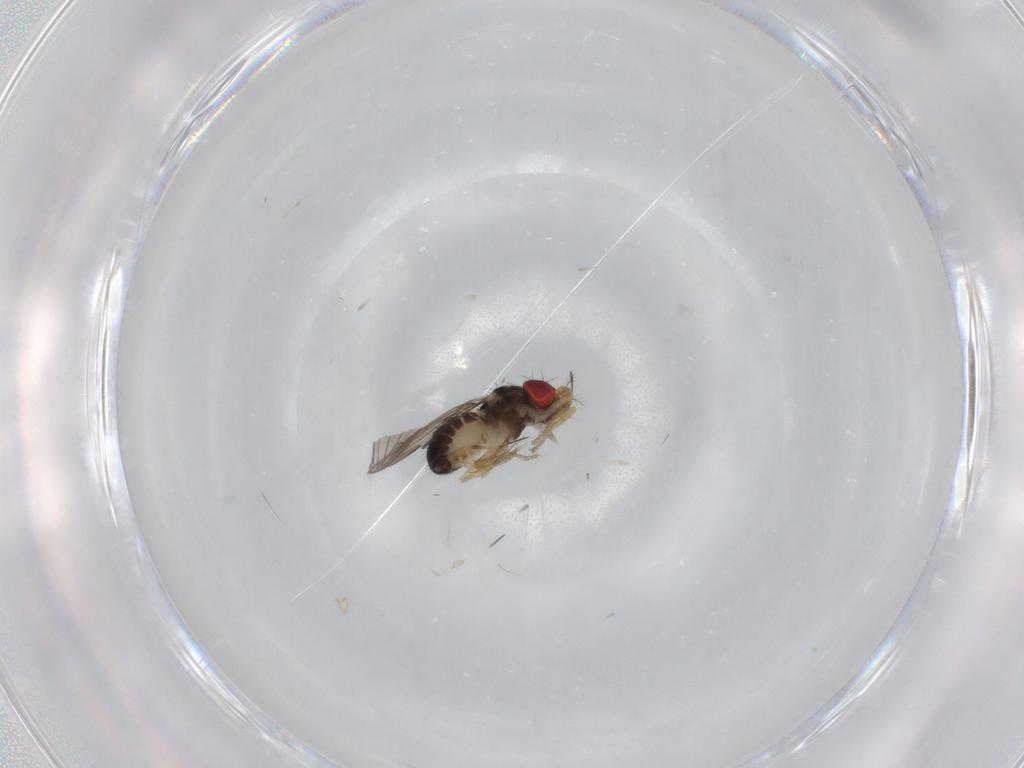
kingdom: Animalia
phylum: Arthropoda
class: Insecta
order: Diptera
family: Drosophilidae
